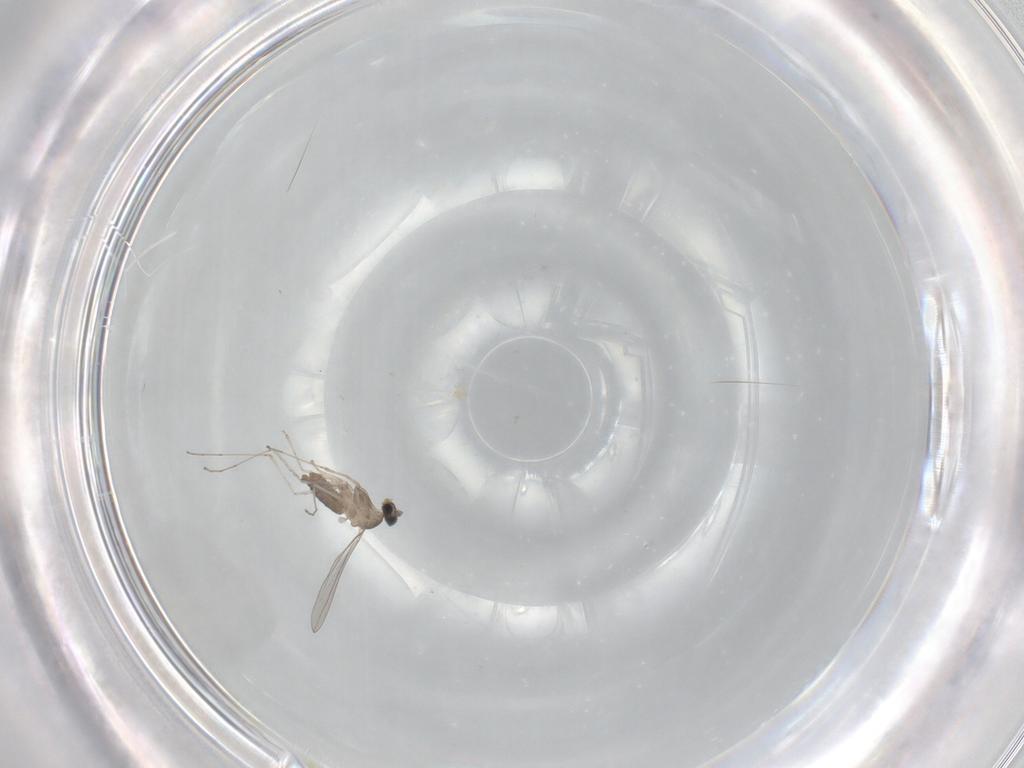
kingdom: Animalia
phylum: Arthropoda
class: Insecta
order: Diptera
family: Cecidomyiidae
